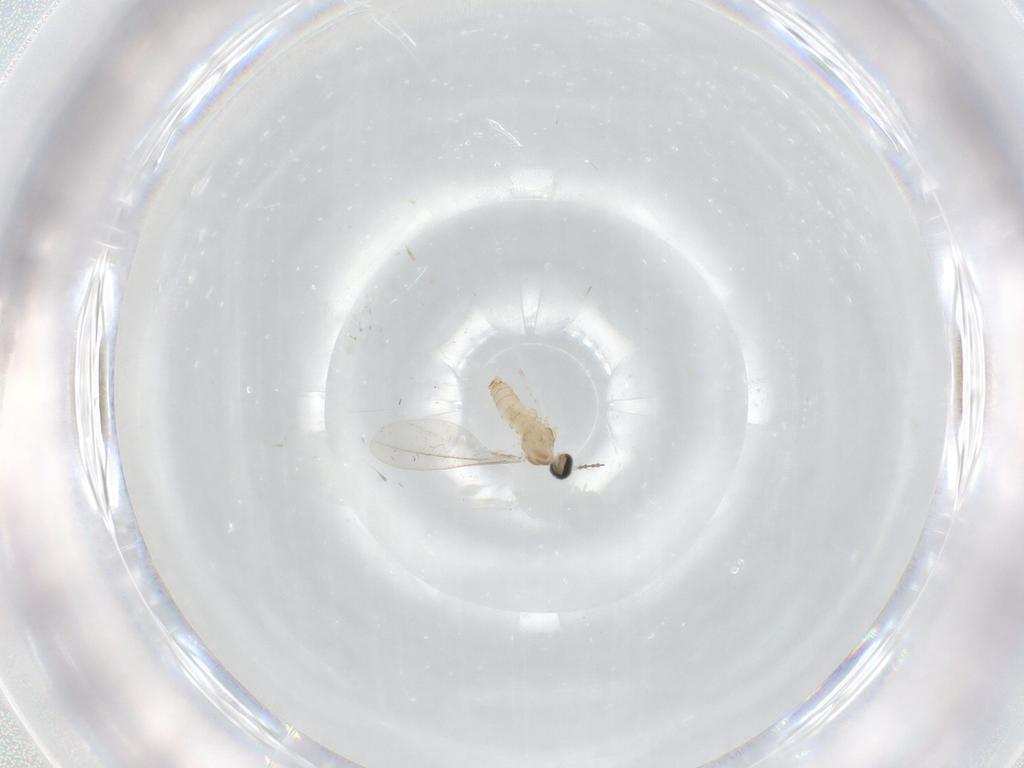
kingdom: Animalia
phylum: Arthropoda
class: Insecta
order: Diptera
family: Cecidomyiidae
